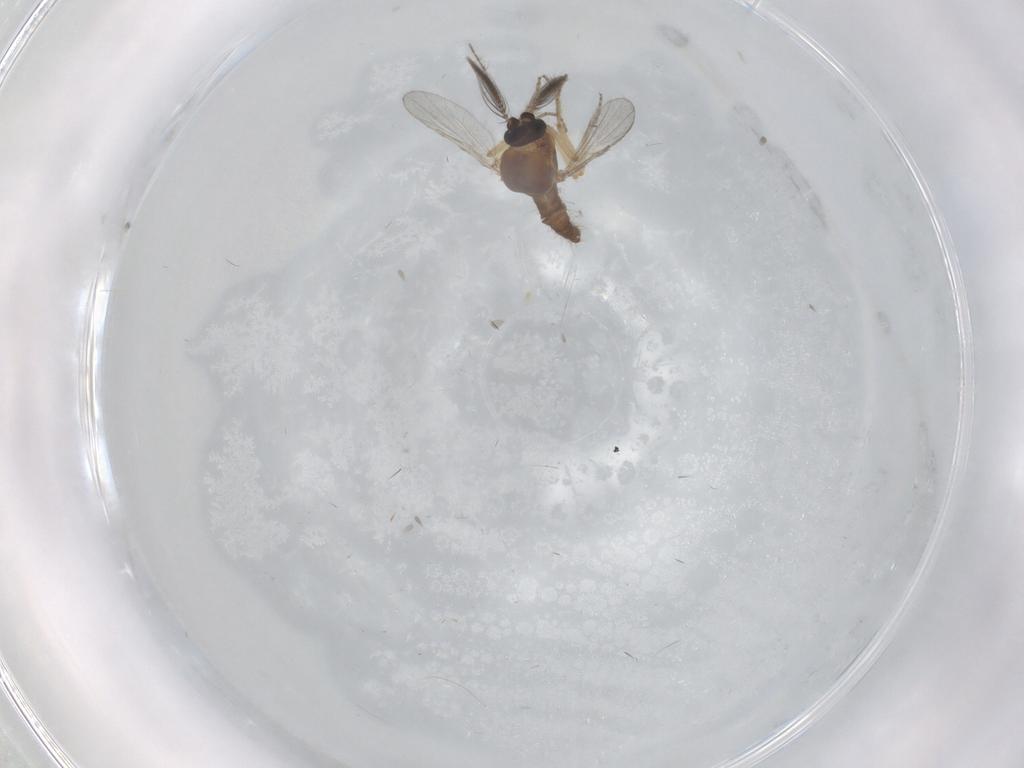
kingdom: Animalia
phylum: Arthropoda
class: Insecta
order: Diptera
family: Ceratopogonidae
